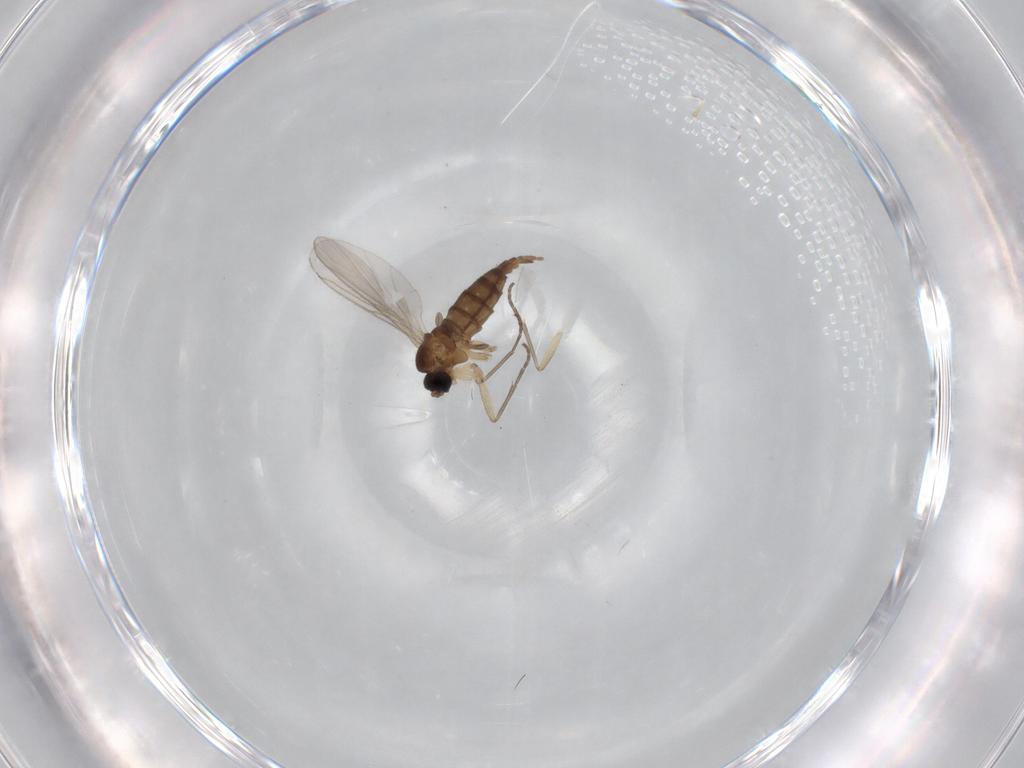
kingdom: Animalia
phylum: Arthropoda
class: Insecta
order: Diptera
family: Sciaridae
